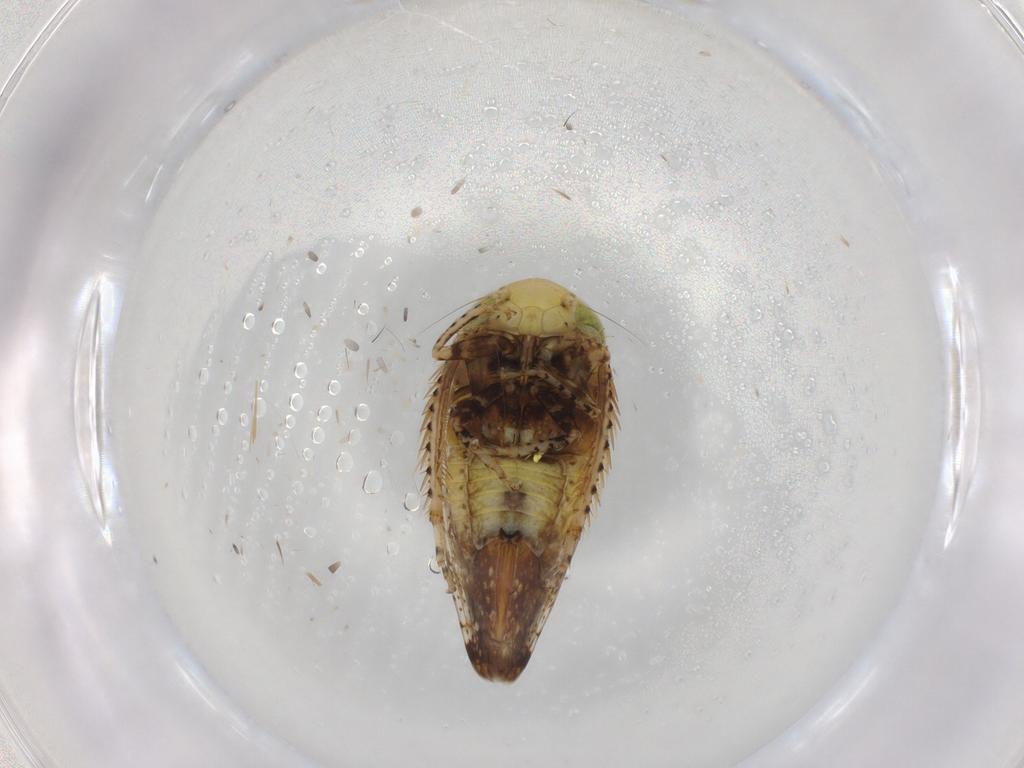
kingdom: Animalia
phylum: Arthropoda
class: Insecta
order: Hemiptera
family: Cicadellidae
